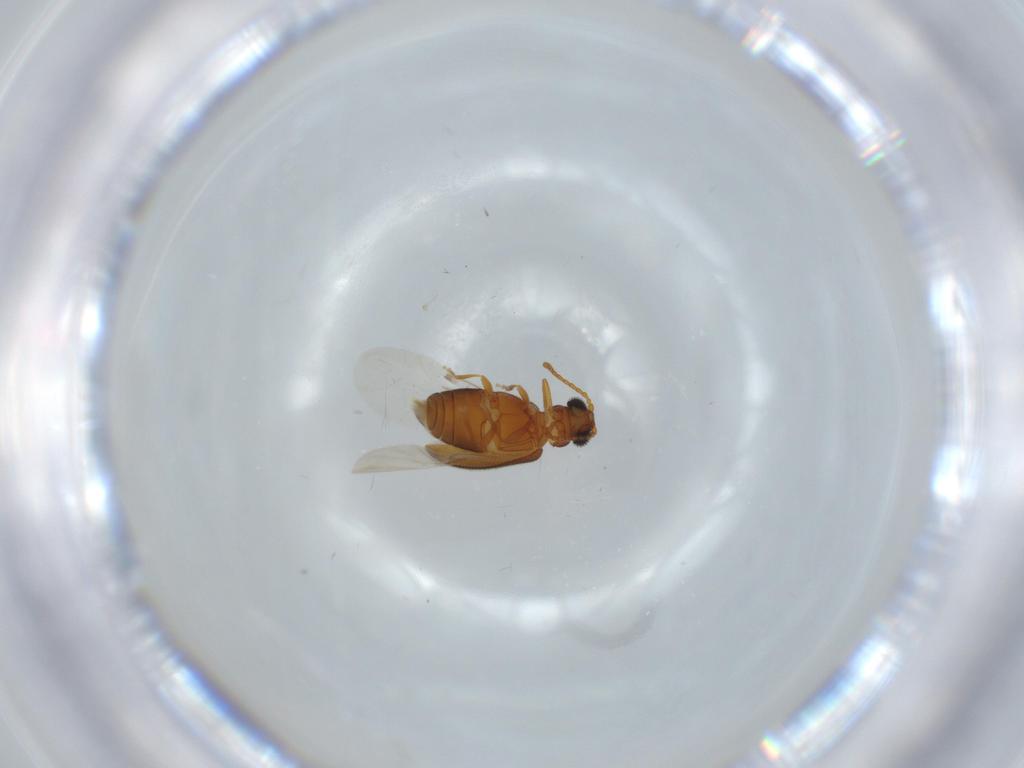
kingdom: Animalia
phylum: Arthropoda
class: Insecta
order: Coleoptera
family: Aderidae
